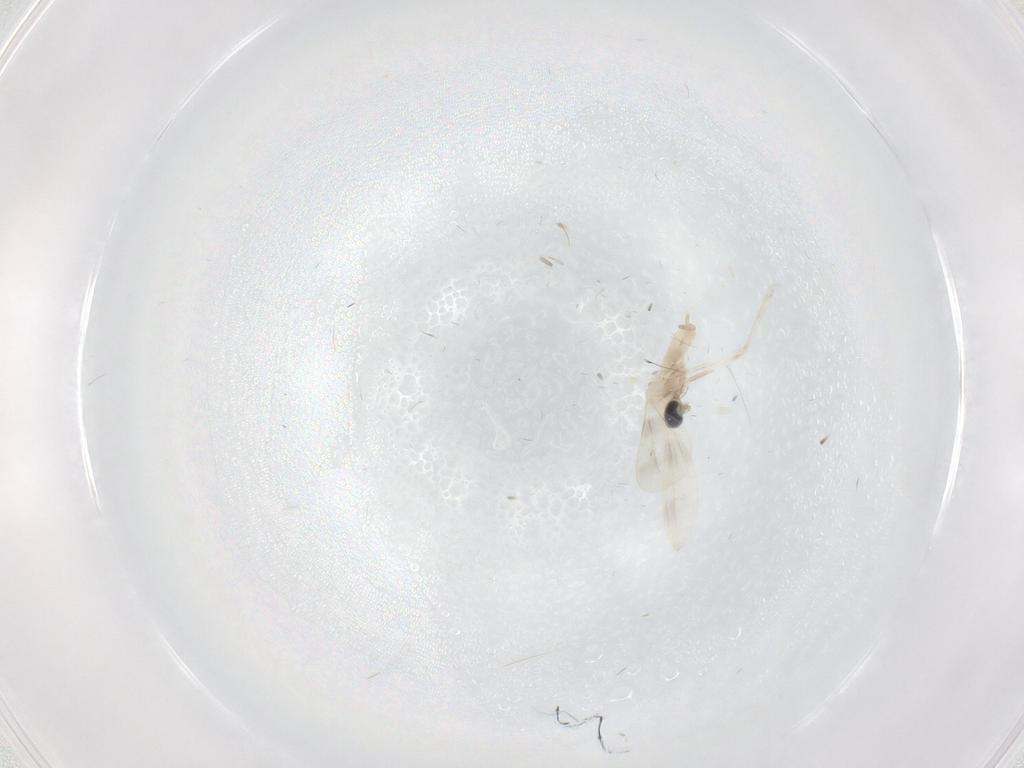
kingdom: Animalia
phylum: Arthropoda
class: Insecta
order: Diptera
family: Cecidomyiidae
